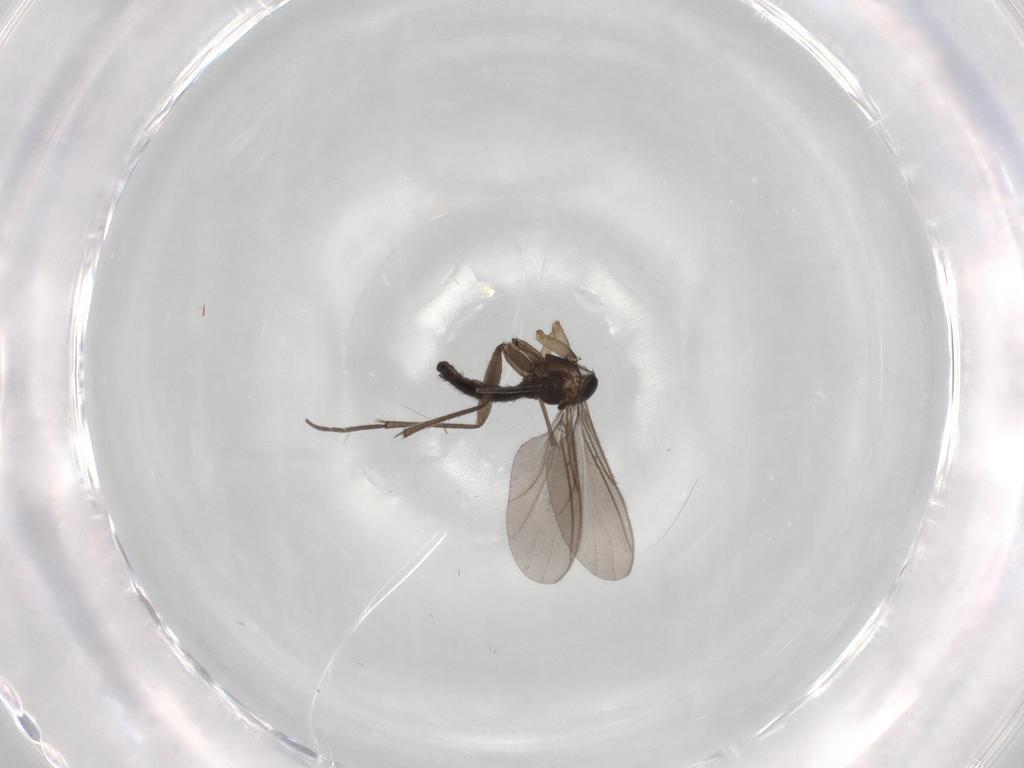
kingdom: Animalia
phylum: Arthropoda
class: Insecta
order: Diptera
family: Sciaridae
